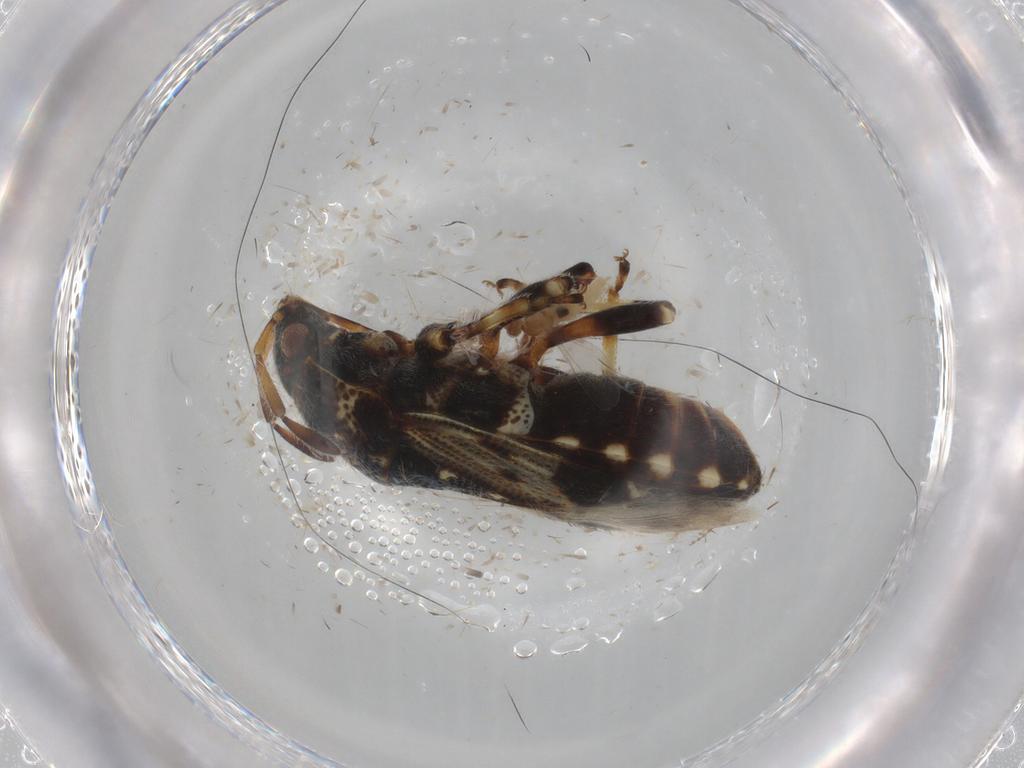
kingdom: Animalia
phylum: Arthropoda
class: Insecta
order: Hemiptera
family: Lygaeidae
